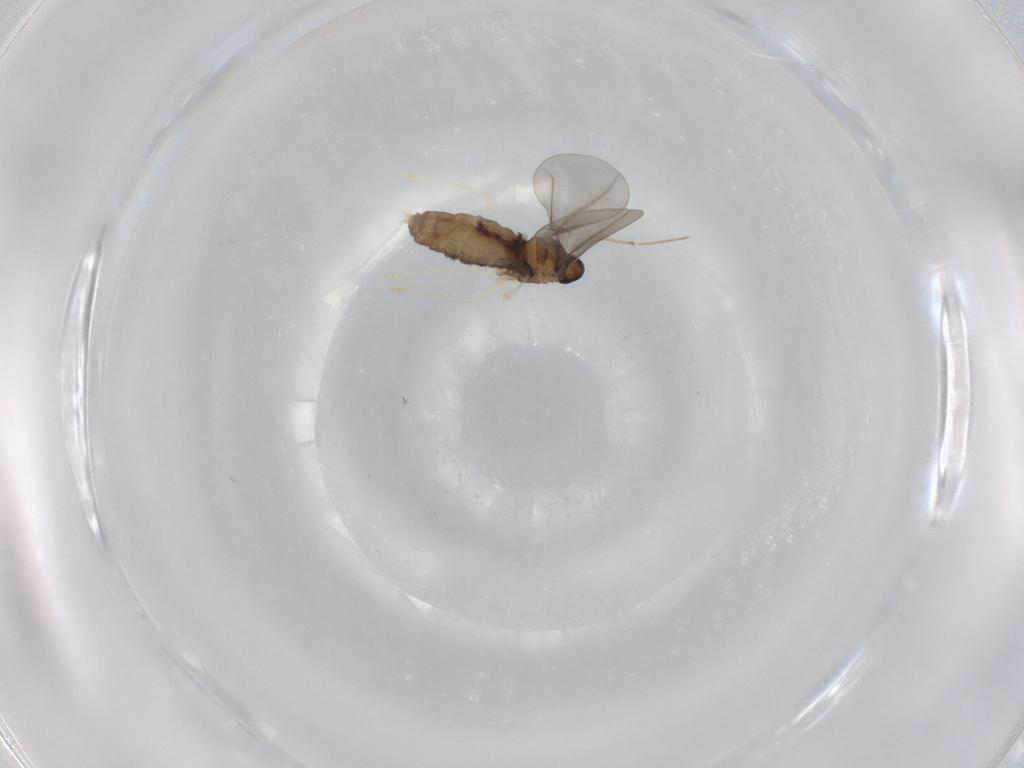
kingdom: Animalia
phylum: Arthropoda
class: Insecta
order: Diptera
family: Cecidomyiidae
